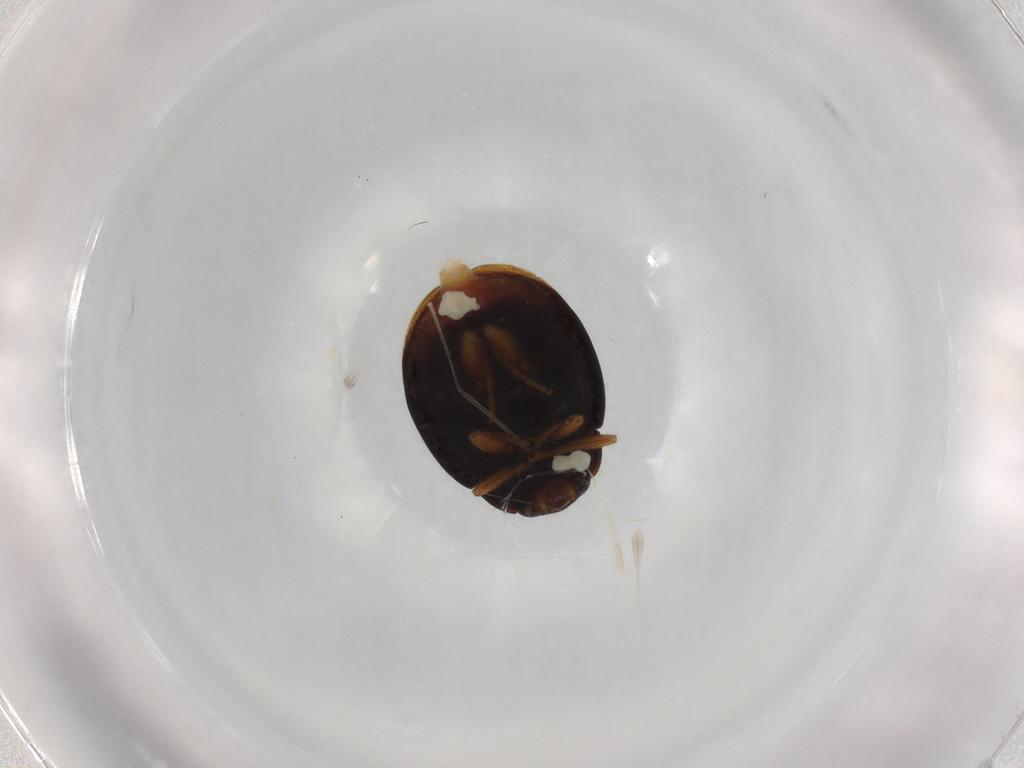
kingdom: Animalia
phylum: Arthropoda
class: Insecta
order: Coleoptera
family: Coccinellidae
